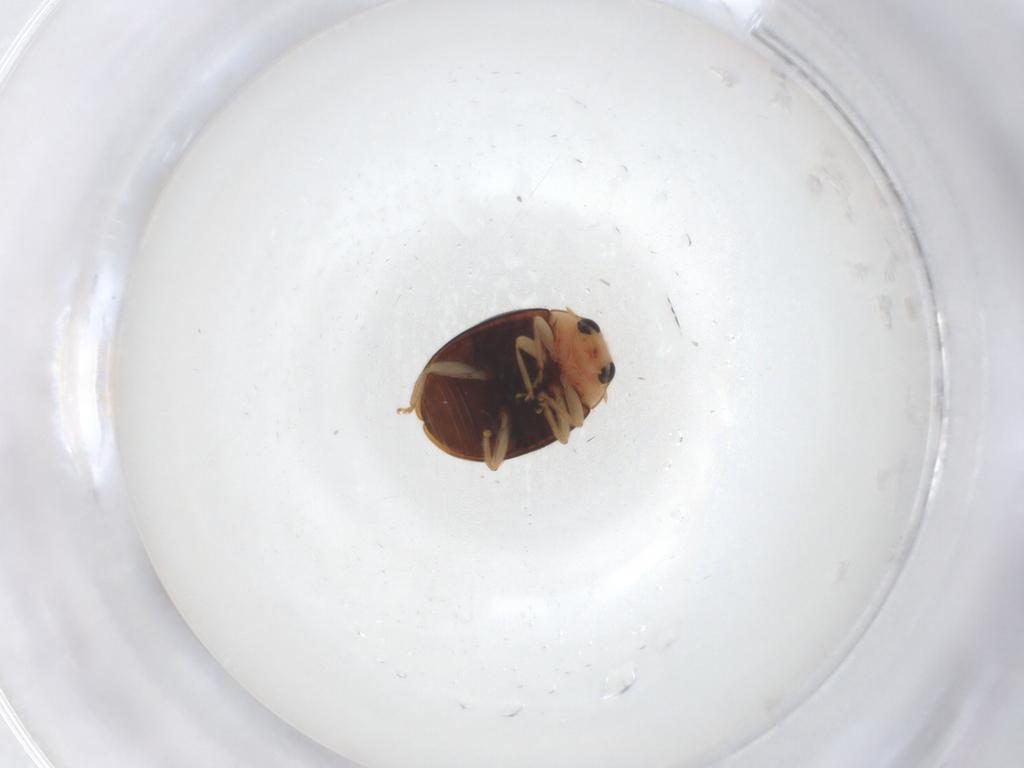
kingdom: Animalia
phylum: Arthropoda
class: Insecta
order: Coleoptera
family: Coccinellidae
